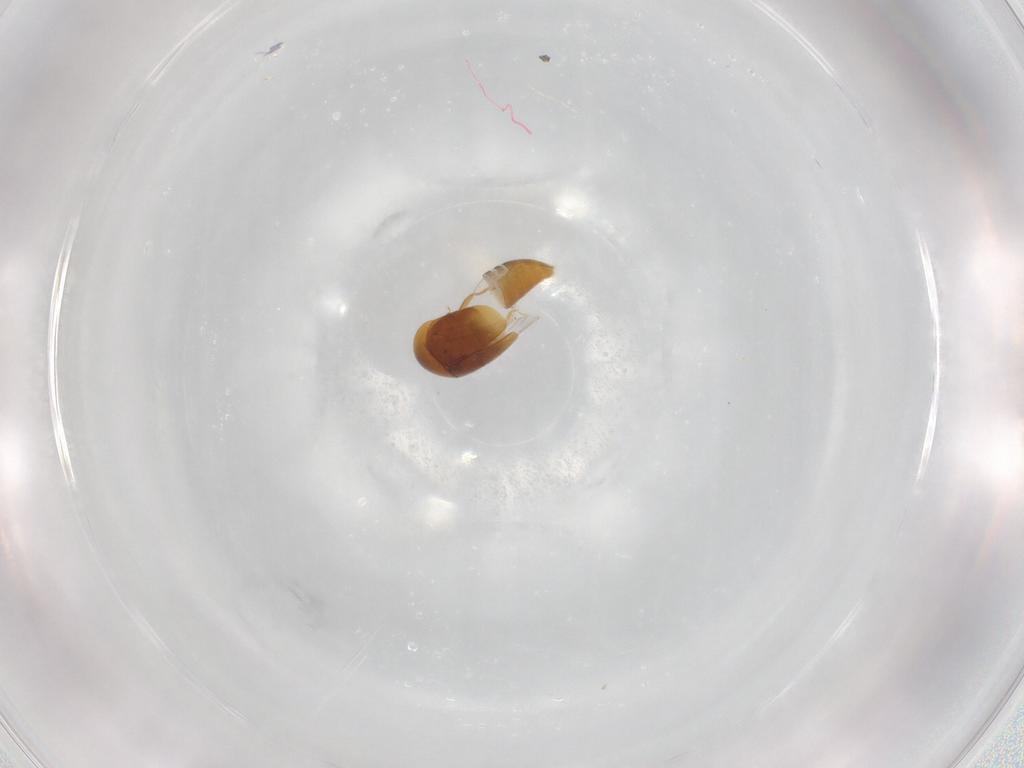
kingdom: Animalia
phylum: Arthropoda
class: Insecta
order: Coleoptera
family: Corylophidae
